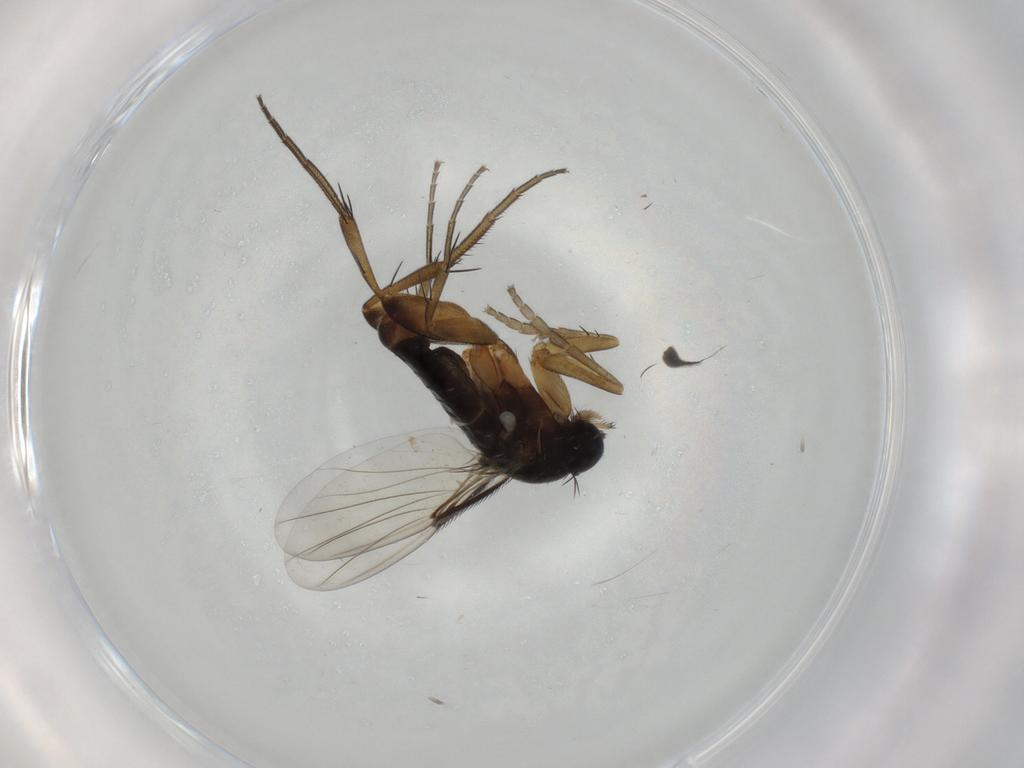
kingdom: Animalia
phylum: Arthropoda
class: Insecta
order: Diptera
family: Phoridae
